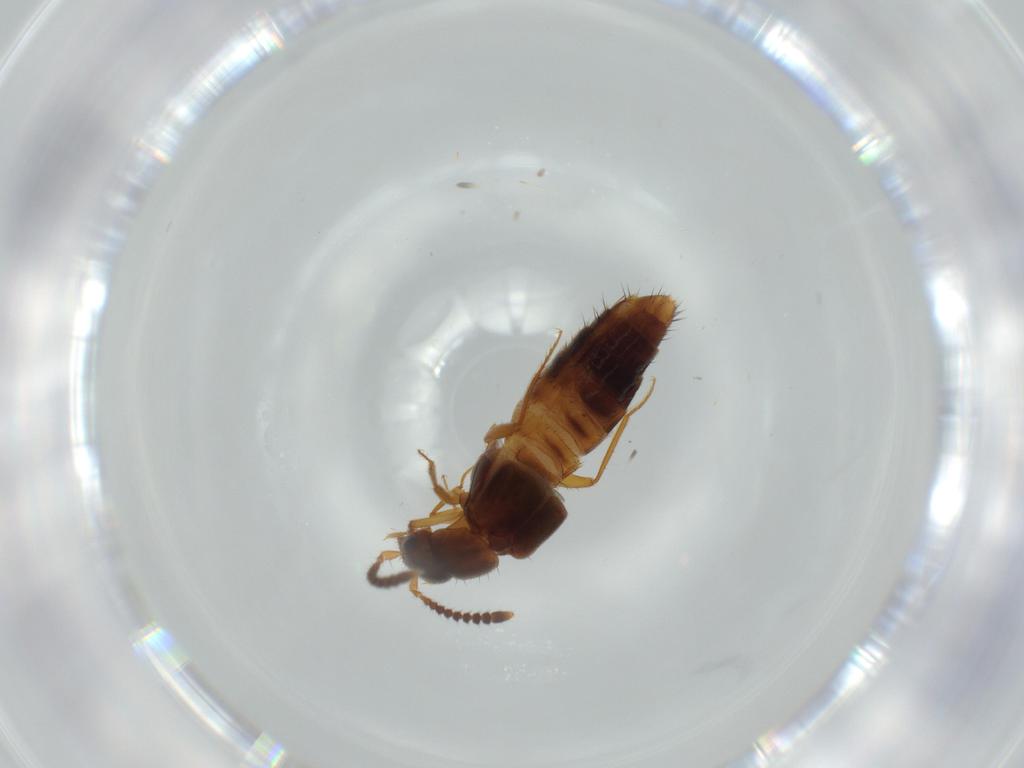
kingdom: Animalia
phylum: Arthropoda
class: Insecta
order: Coleoptera
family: Staphylinidae
